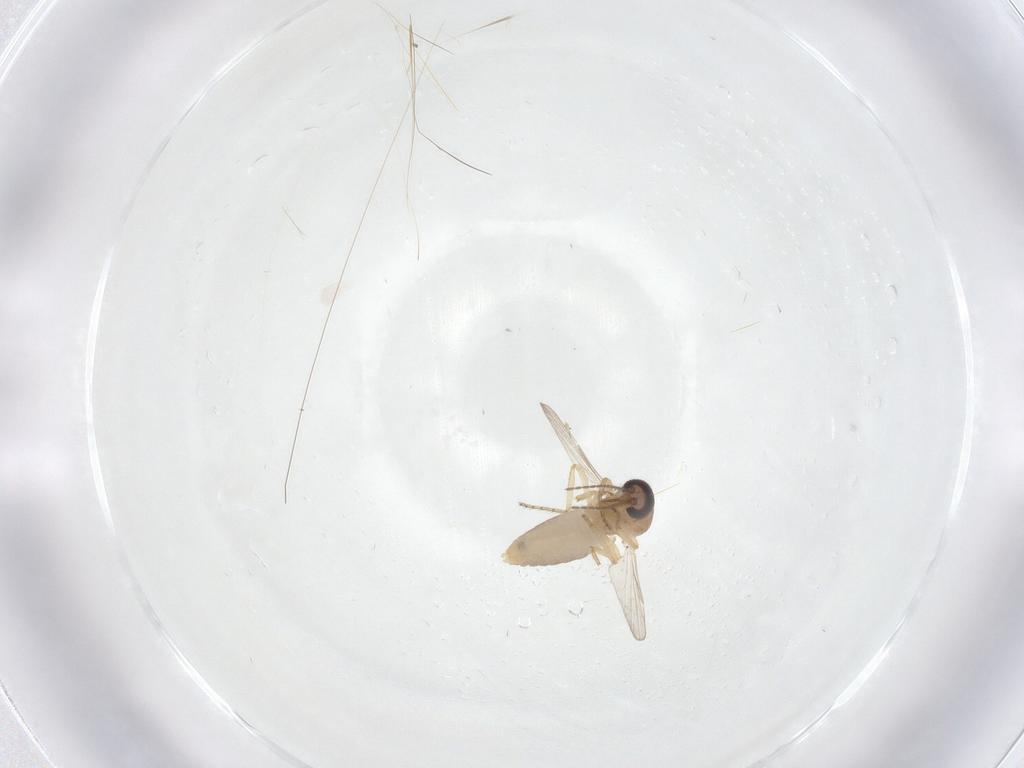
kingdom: Animalia
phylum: Arthropoda
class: Insecta
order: Diptera
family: Ceratopogonidae
